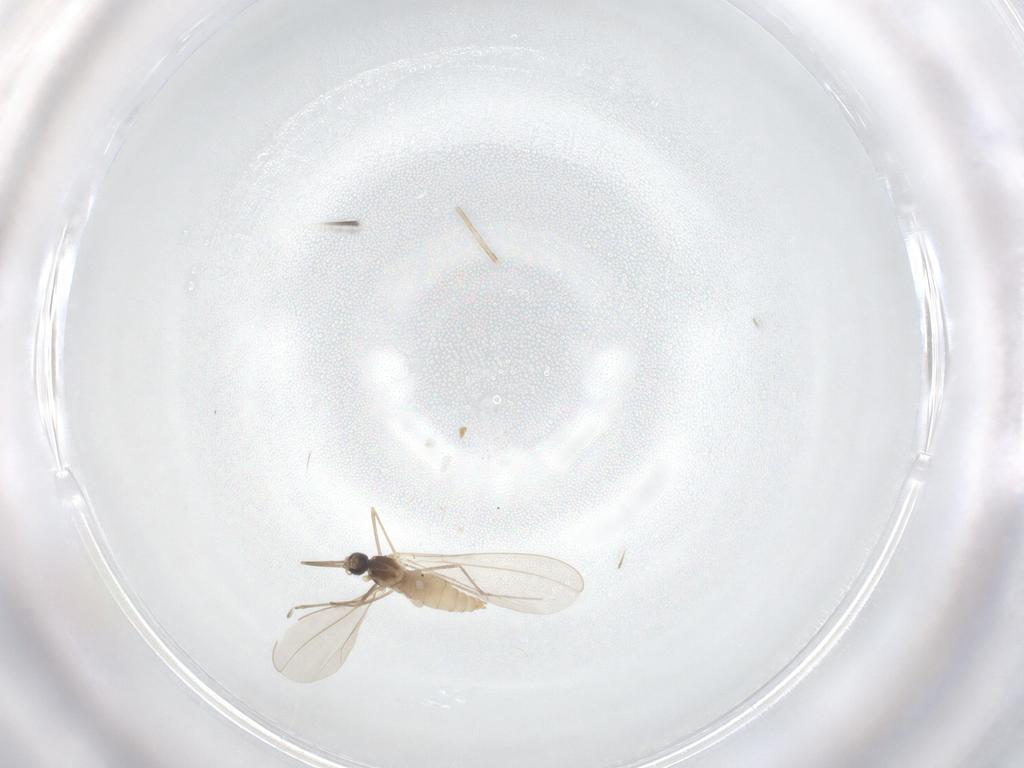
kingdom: Animalia
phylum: Arthropoda
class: Insecta
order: Diptera
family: Cecidomyiidae
